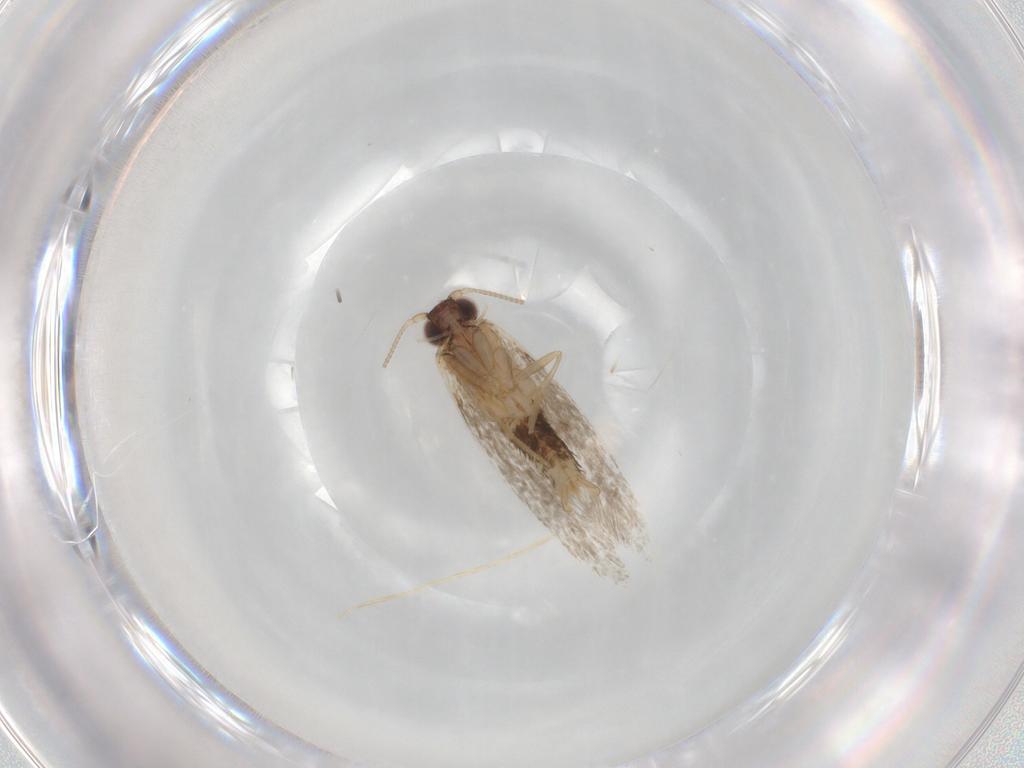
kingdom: Animalia
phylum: Arthropoda
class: Insecta
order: Lepidoptera
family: Tineidae
